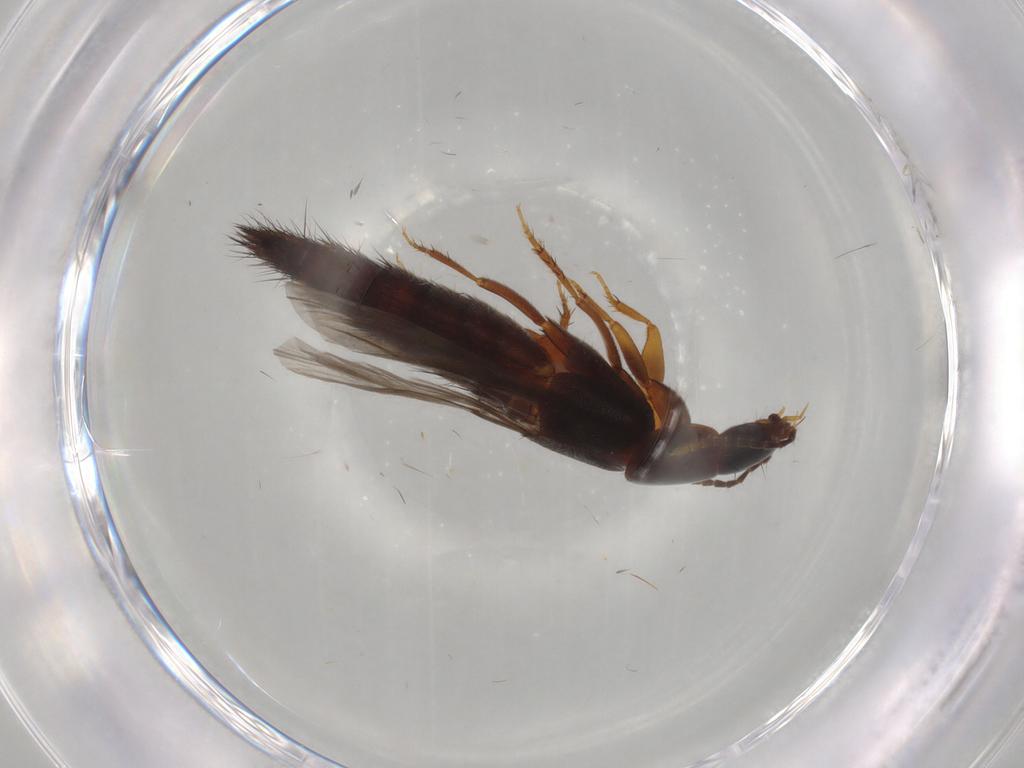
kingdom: Animalia
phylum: Arthropoda
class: Insecta
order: Coleoptera
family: Staphylinidae
